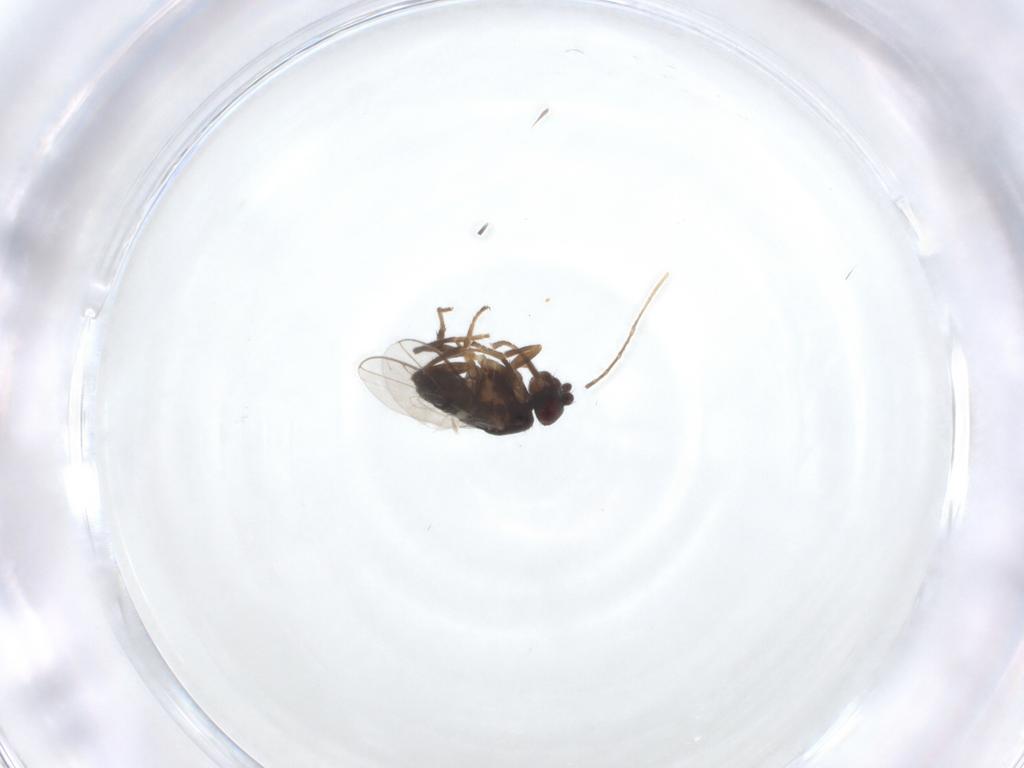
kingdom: Animalia
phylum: Arthropoda
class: Insecta
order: Diptera
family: Sphaeroceridae
